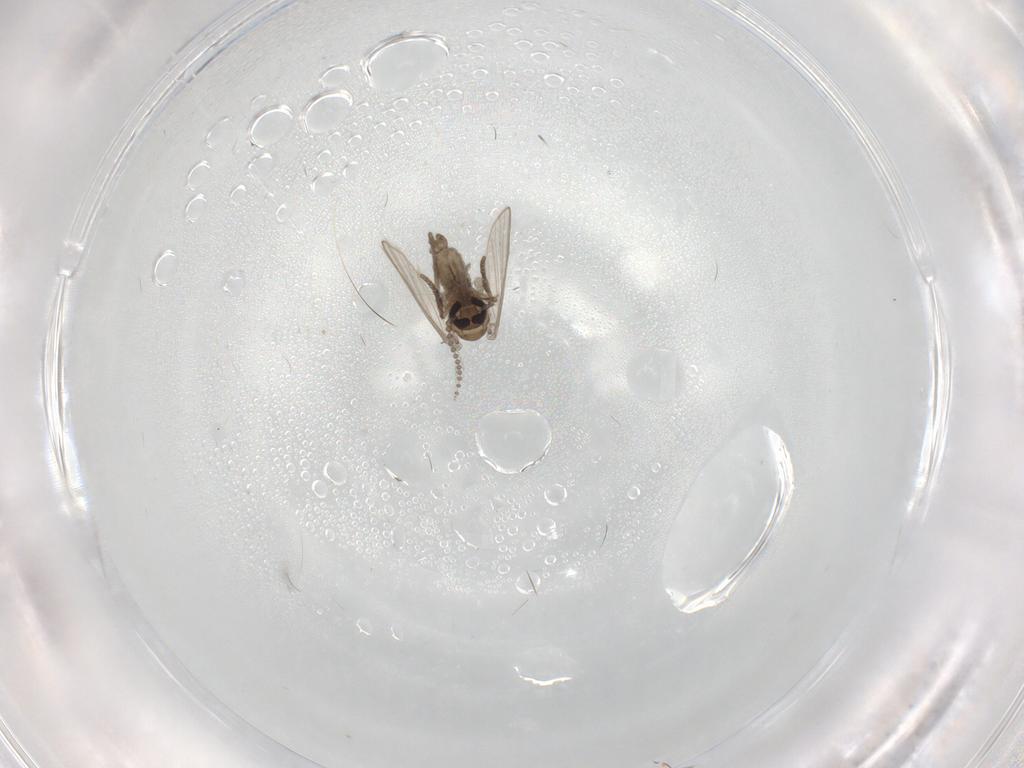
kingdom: Animalia
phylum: Arthropoda
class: Insecta
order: Diptera
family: Psychodidae
